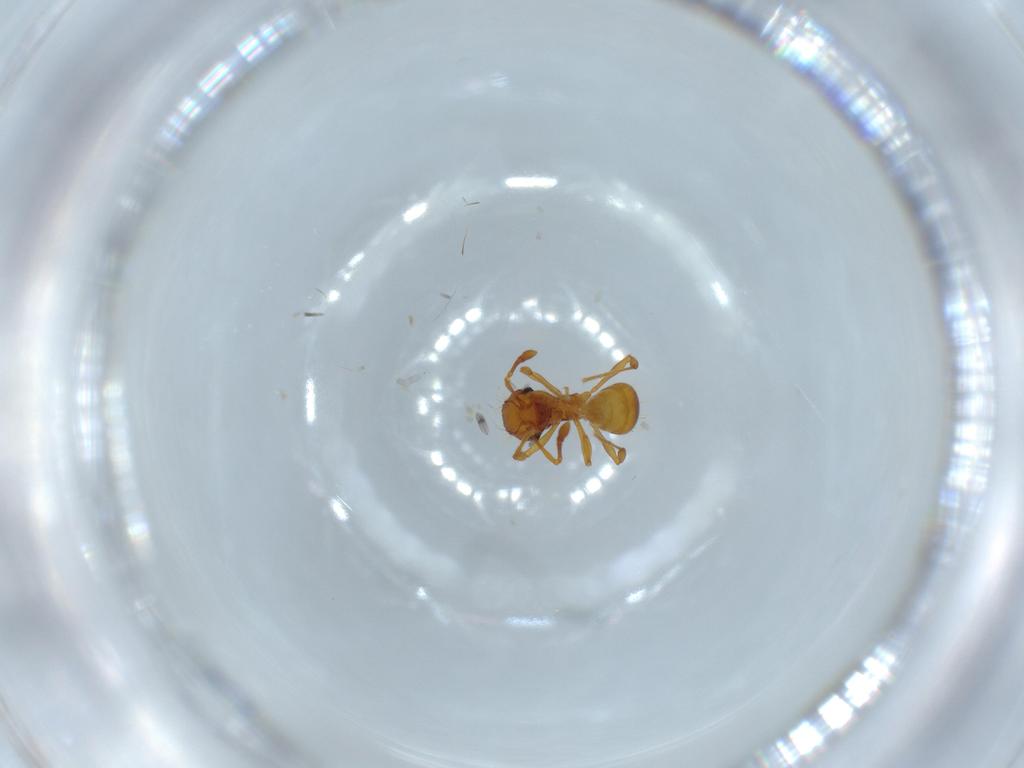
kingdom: Animalia
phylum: Arthropoda
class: Insecta
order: Hymenoptera
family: Formicidae
